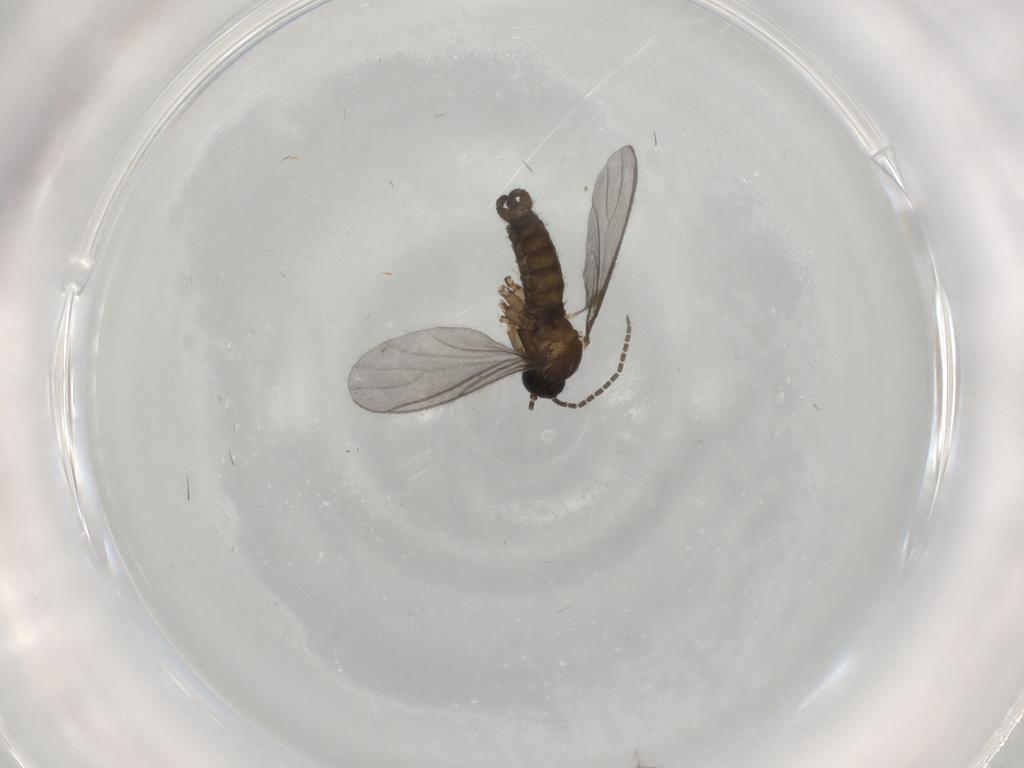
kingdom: Animalia
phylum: Arthropoda
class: Insecta
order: Diptera
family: Sciaridae
